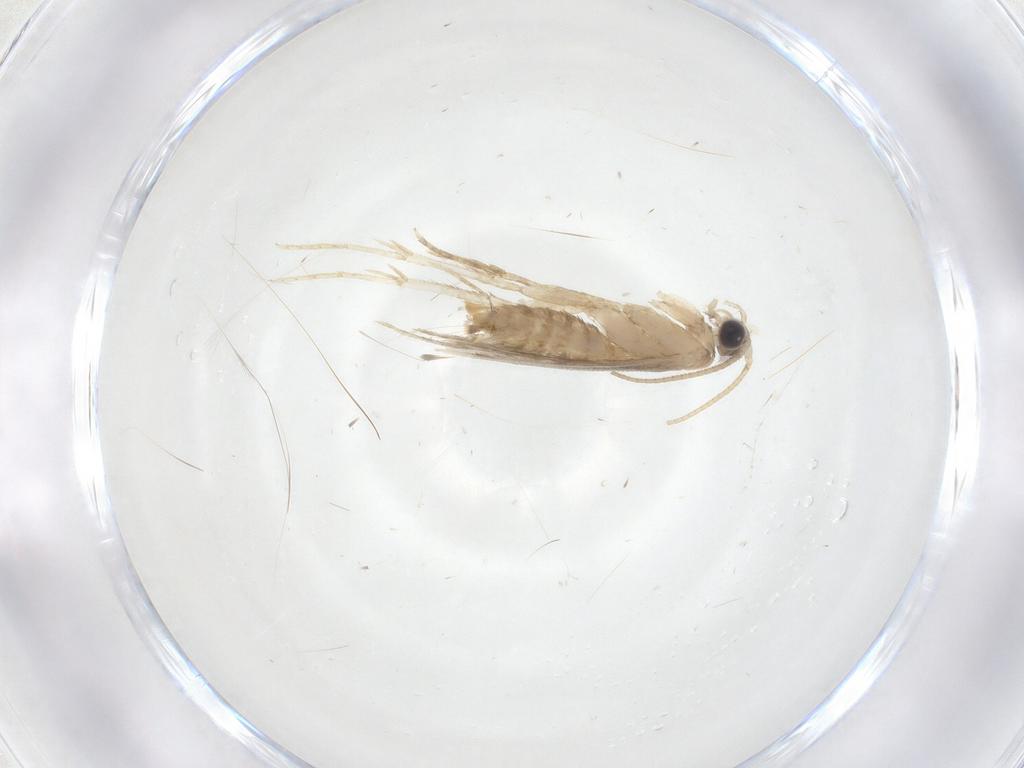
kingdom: Animalia
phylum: Arthropoda
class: Insecta
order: Lepidoptera
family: Dryadaulidae
